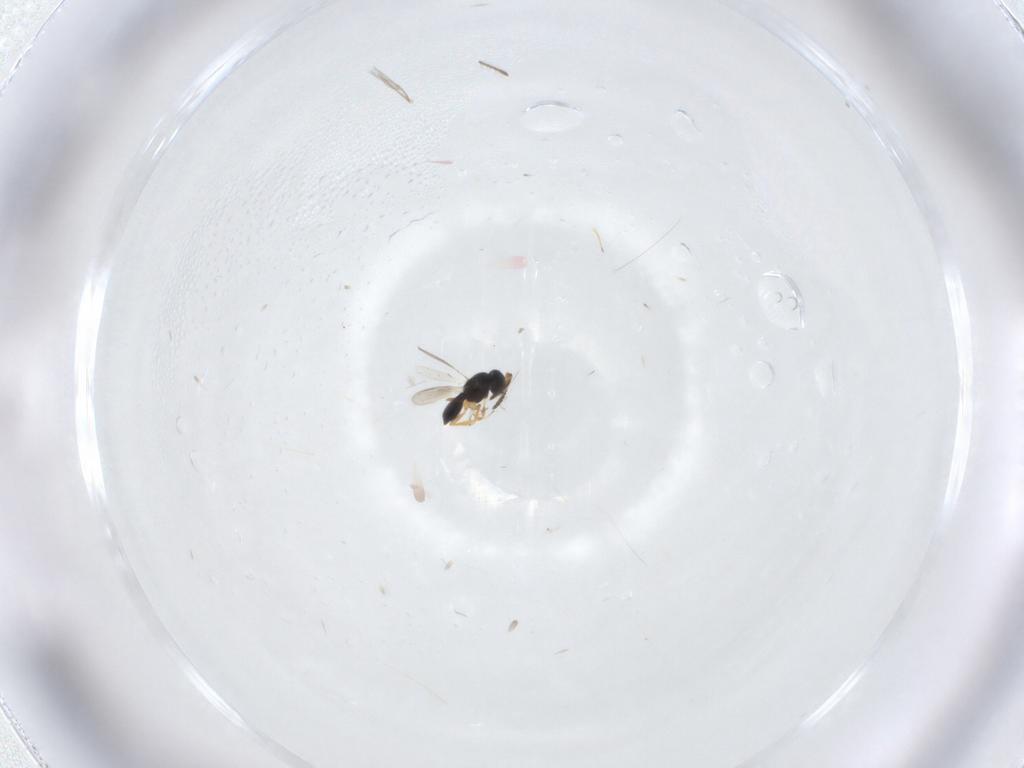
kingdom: Animalia
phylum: Arthropoda
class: Insecta
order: Hymenoptera
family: Scelionidae
